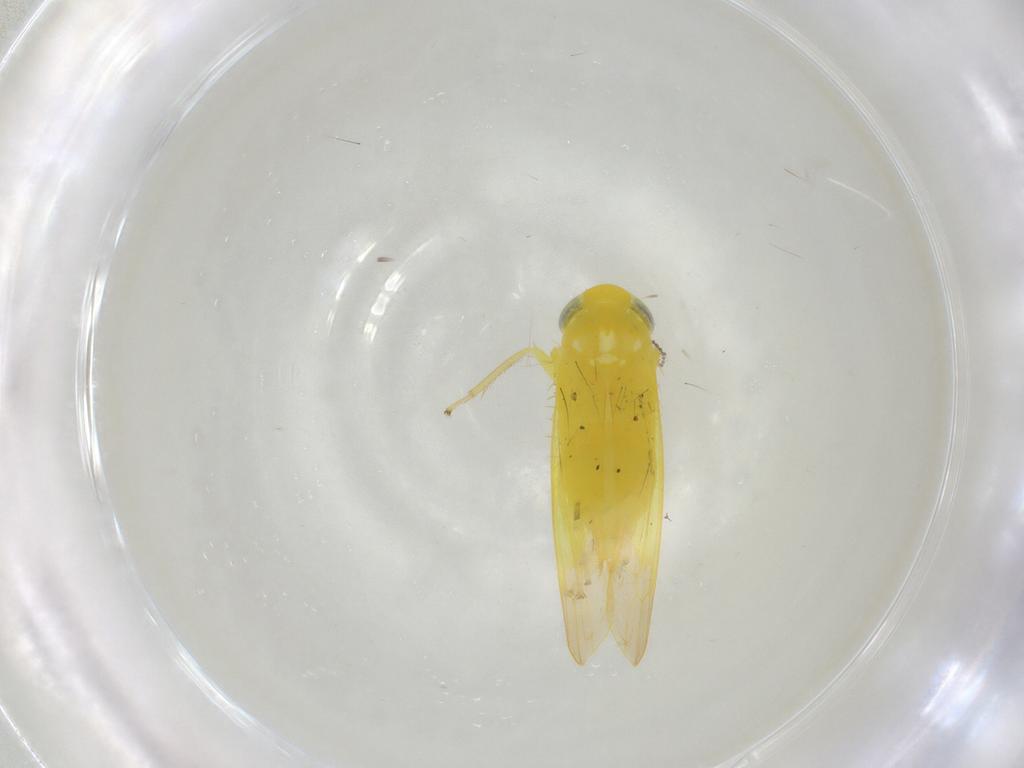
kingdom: Animalia
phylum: Arthropoda
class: Insecta
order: Hemiptera
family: Cicadellidae
